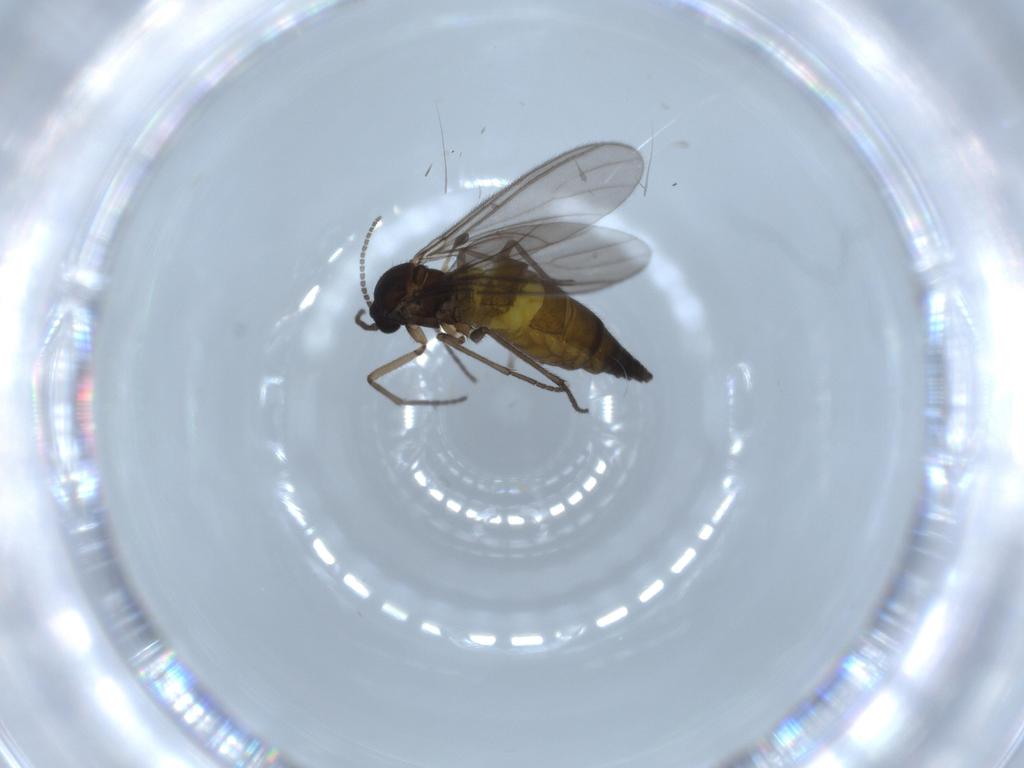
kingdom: Animalia
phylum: Arthropoda
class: Insecta
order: Diptera
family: Sciaridae
